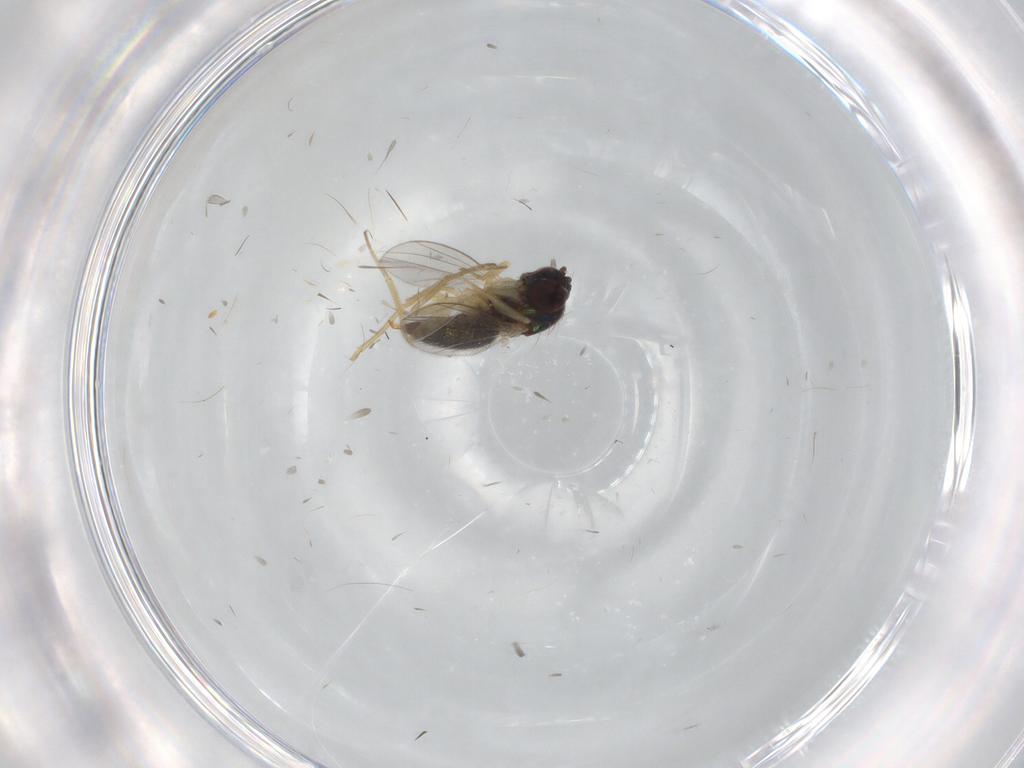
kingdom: Animalia
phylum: Arthropoda
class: Insecta
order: Diptera
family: Dolichopodidae
